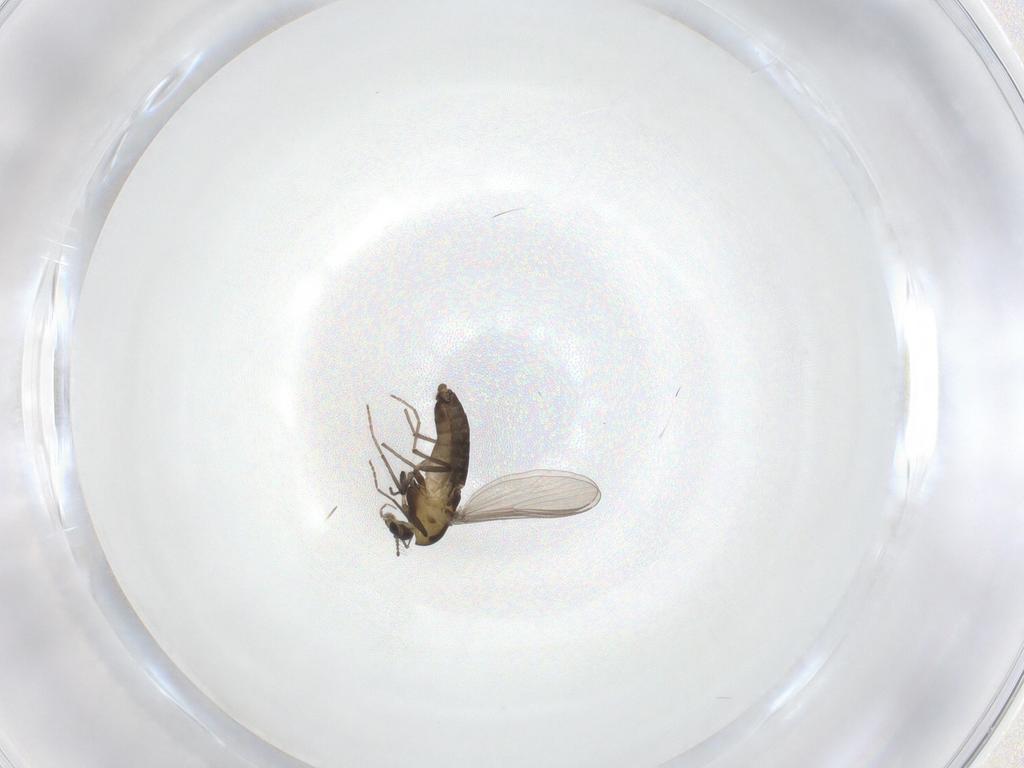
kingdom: Animalia
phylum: Arthropoda
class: Insecta
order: Diptera
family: Chironomidae
